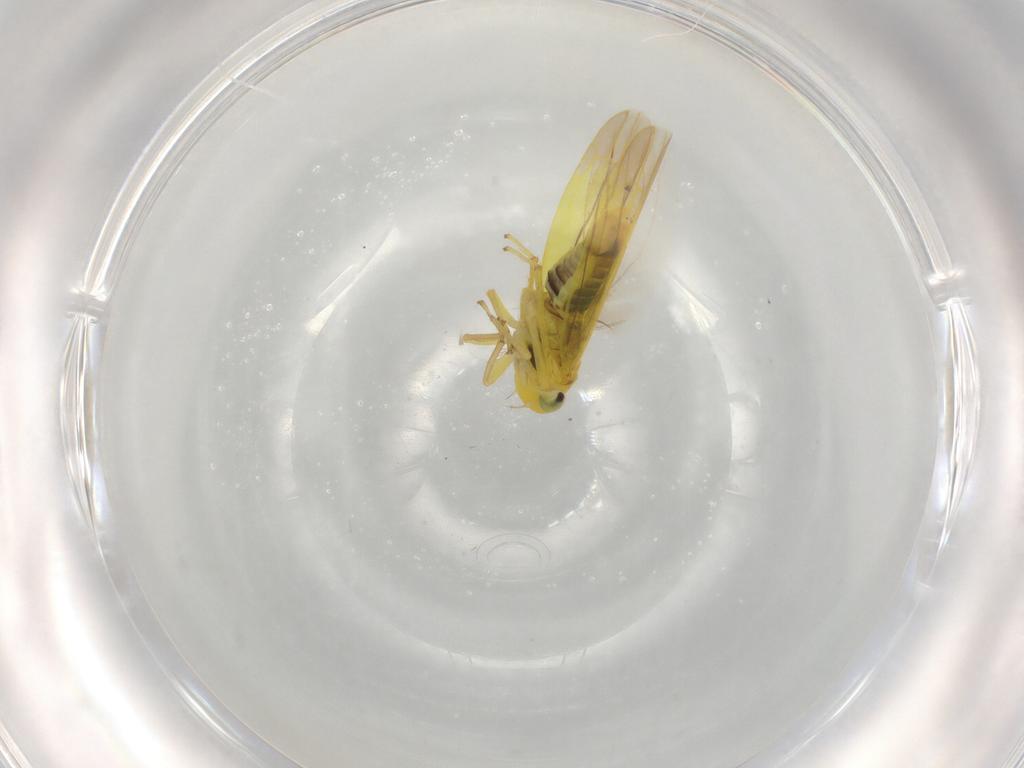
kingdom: Animalia
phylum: Arthropoda
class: Insecta
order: Hemiptera
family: Cicadellidae
